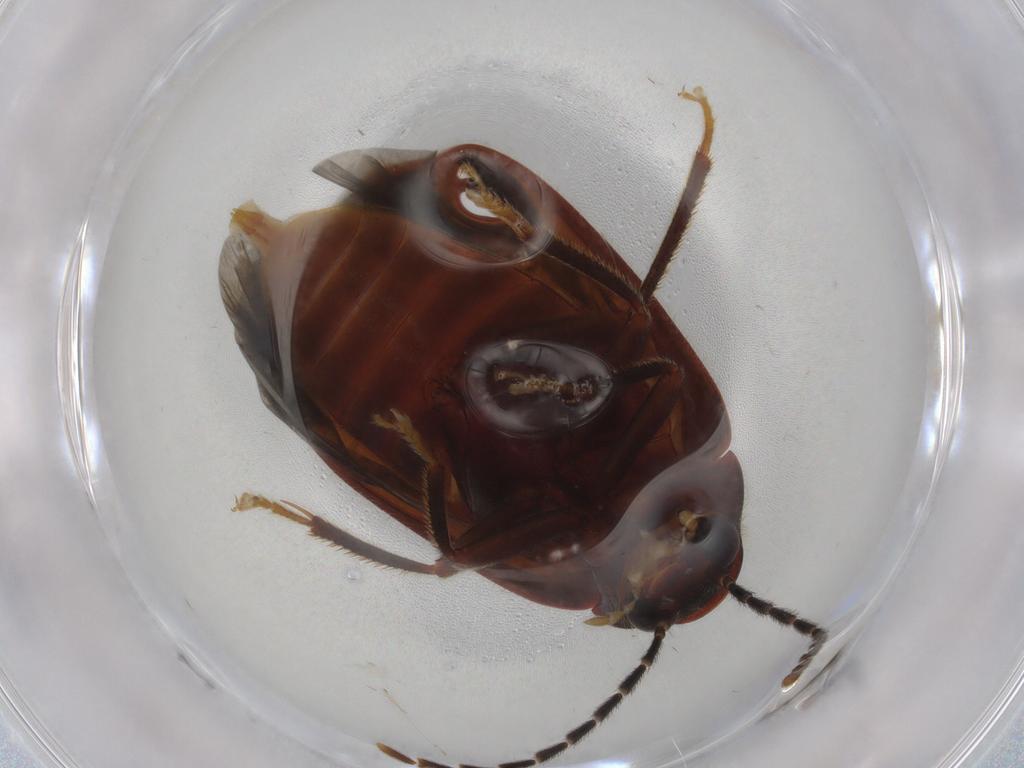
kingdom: Animalia
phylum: Arthropoda
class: Insecta
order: Coleoptera
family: Ptilodactylidae
